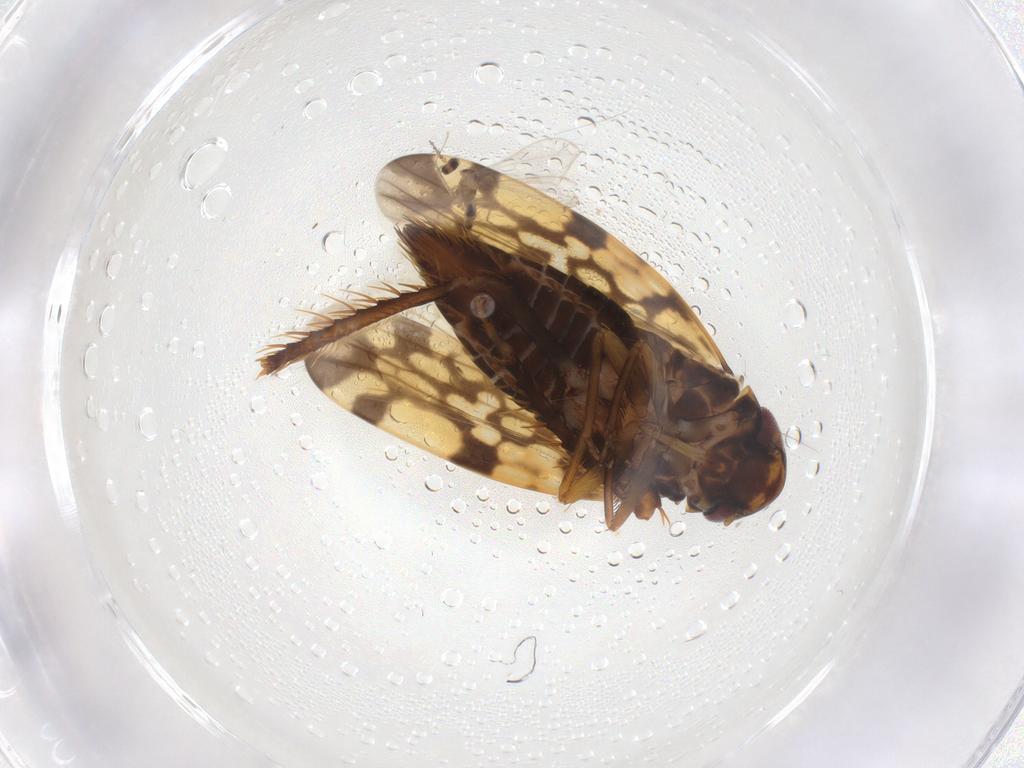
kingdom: Animalia
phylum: Arthropoda
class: Insecta
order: Hemiptera
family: Cicadellidae
